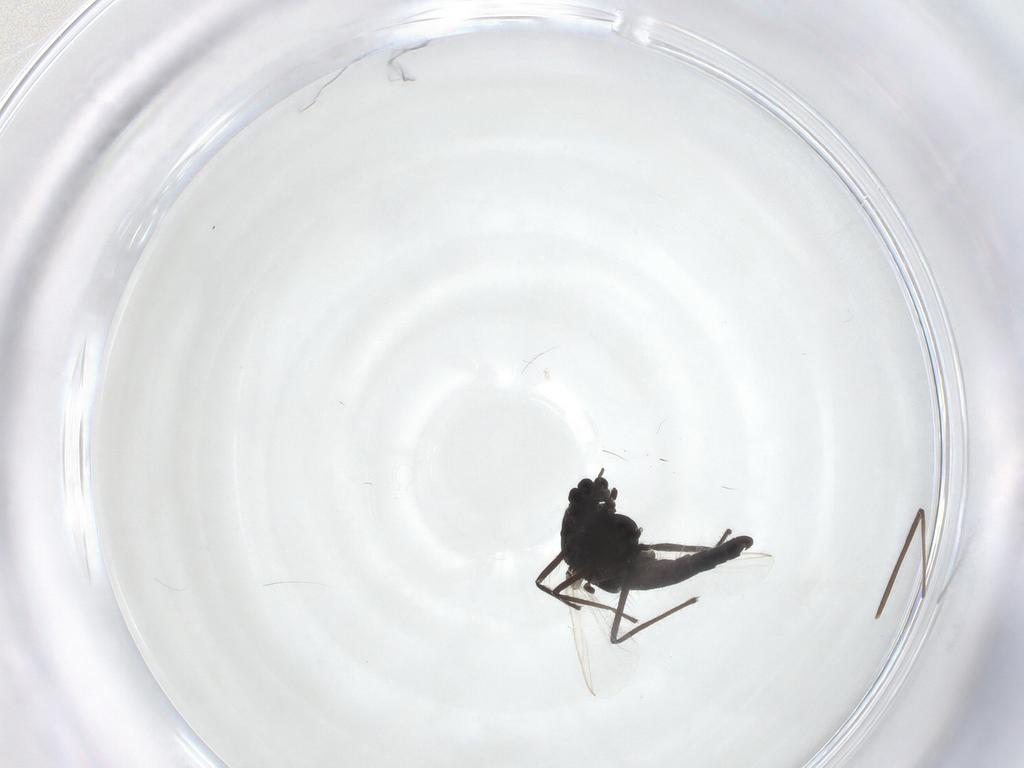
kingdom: Animalia
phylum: Arthropoda
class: Insecta
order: Diptera
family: Chironomidae
